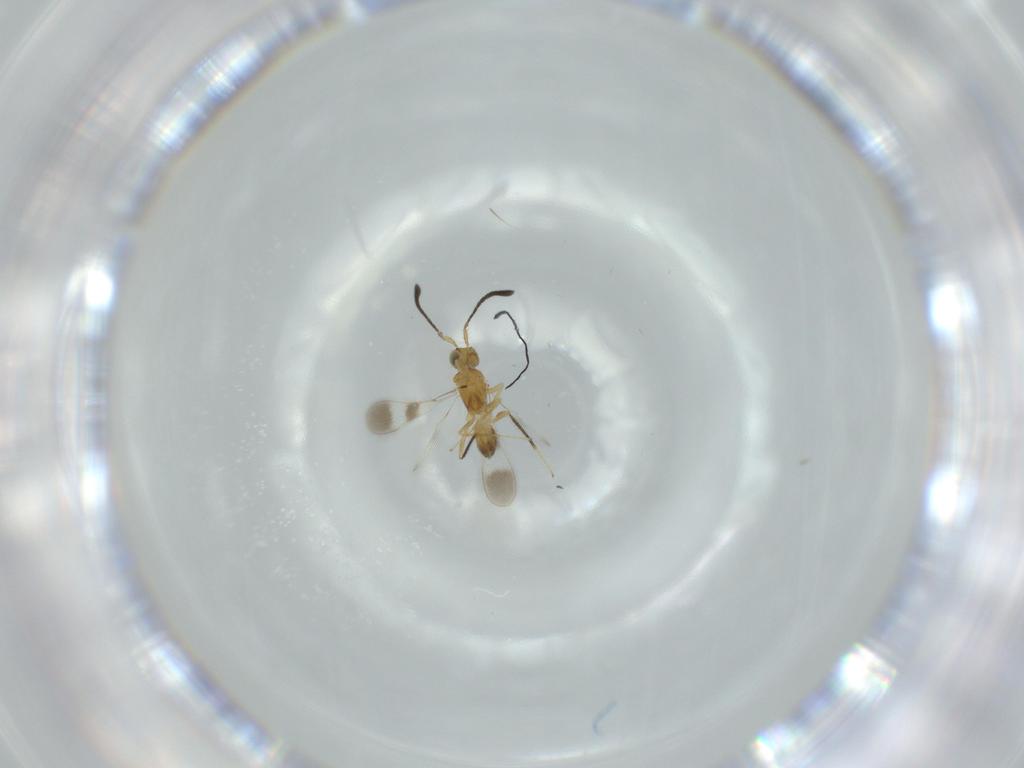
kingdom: Animalia
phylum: Arthropoda
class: Insecta
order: Hymenoptera
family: Mymaridae
